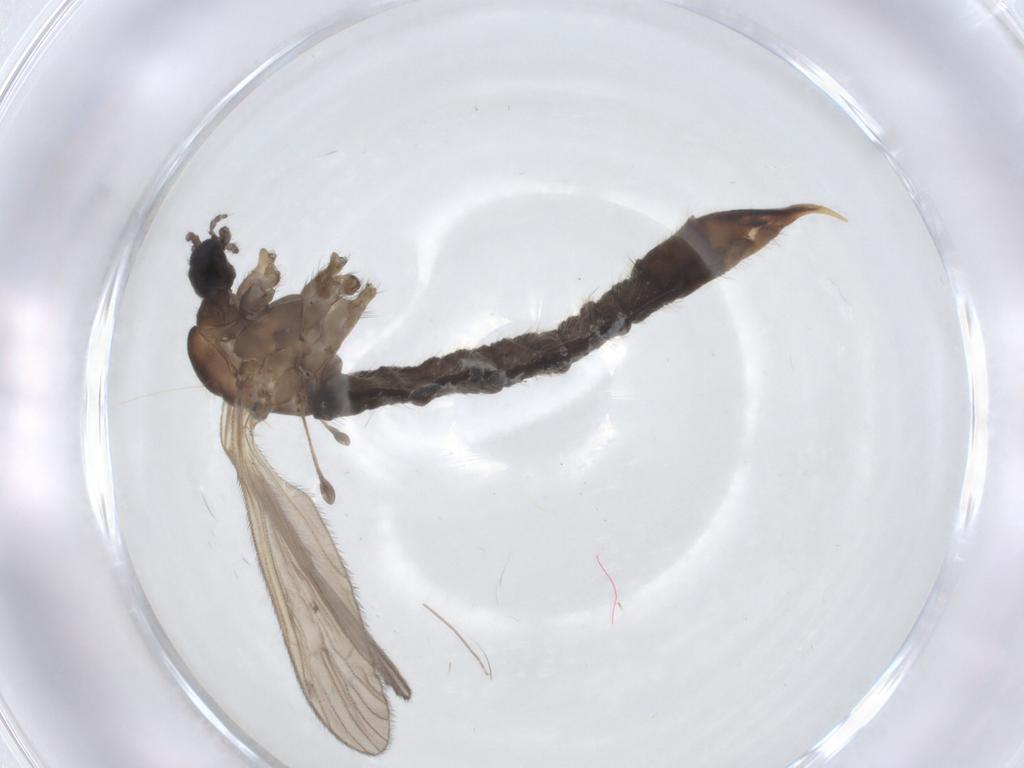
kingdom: Animalia
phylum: Arthropoda
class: Insecta
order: Diptera
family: Limoniidae
